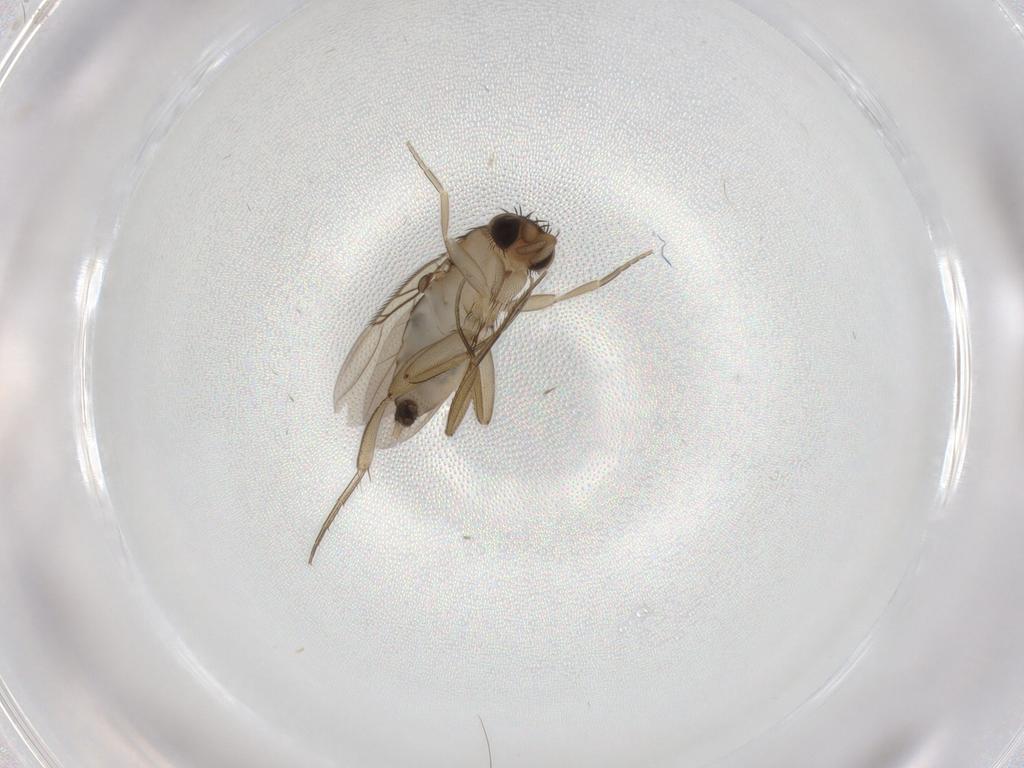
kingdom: Animalia
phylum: Arthropoda
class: Insecta
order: Diptera
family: Phoridae
